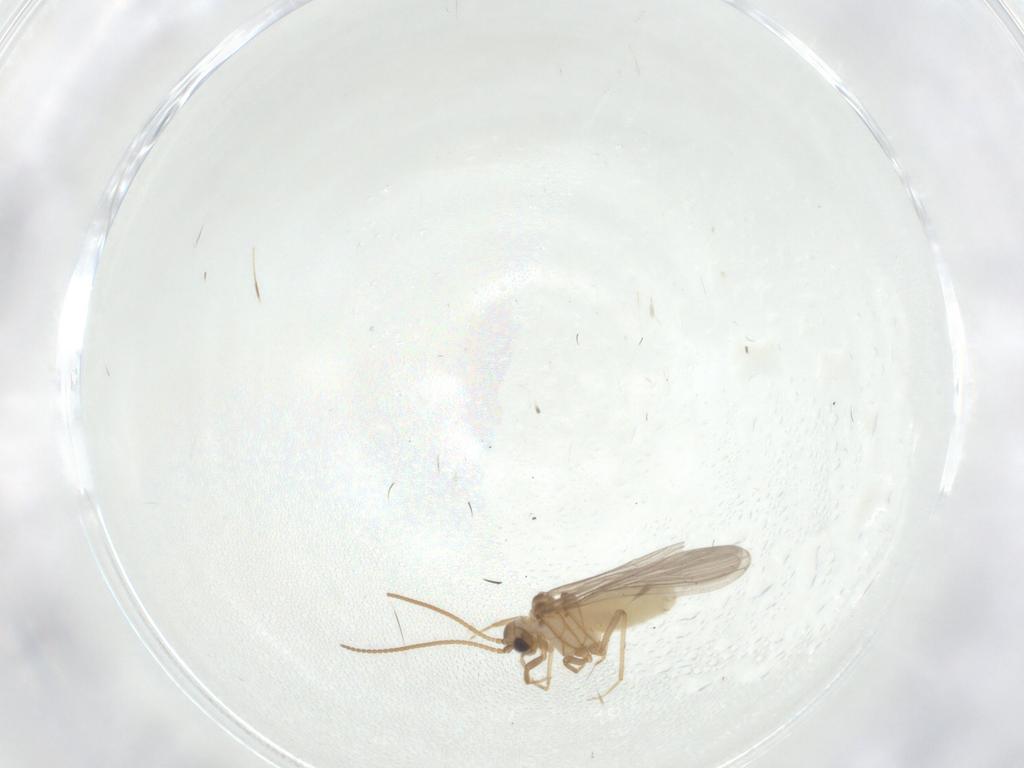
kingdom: Animalia
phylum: Arthropoda
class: Insecta
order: Neuroptera
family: Coniopterygidae
